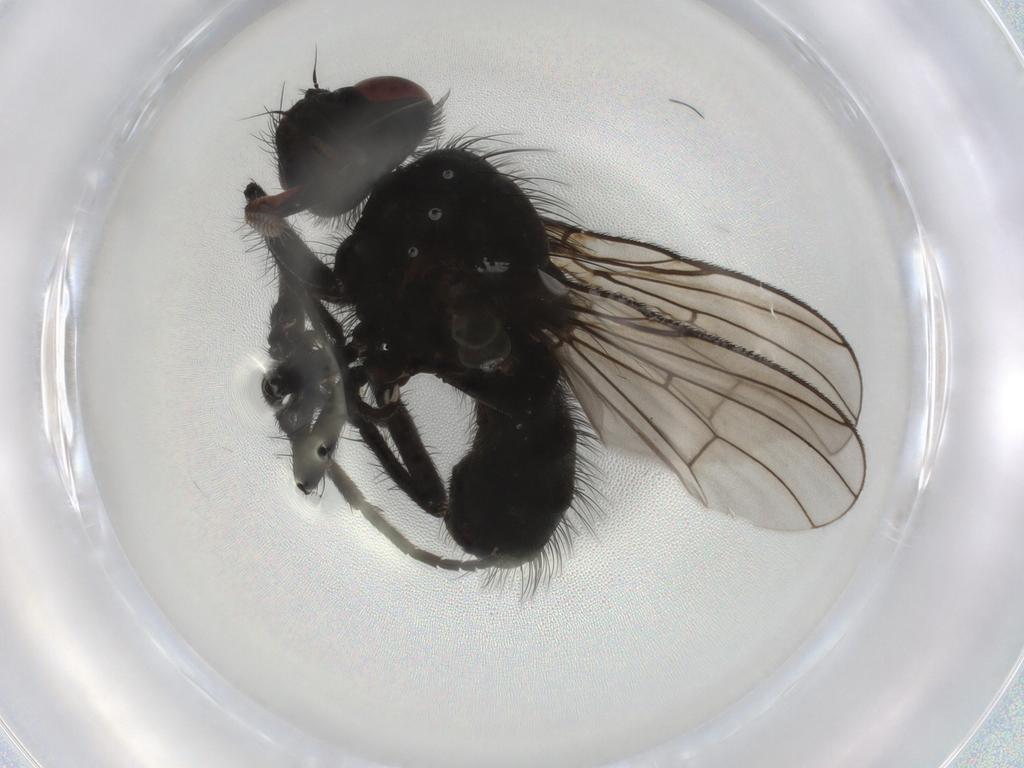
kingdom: Animalia
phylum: Arthropoda
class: Insecta
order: Diptera
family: Muscidae
